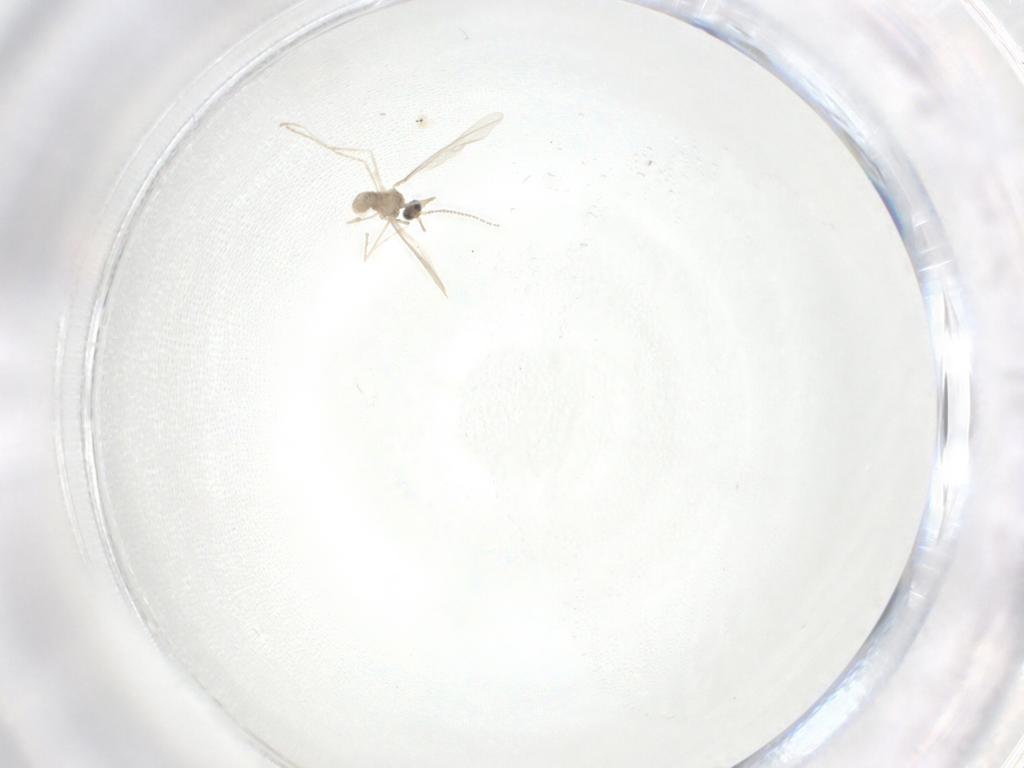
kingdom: Animalia
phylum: Arthropoda
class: Insecta
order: Diptera
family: Cecidomyiidae
